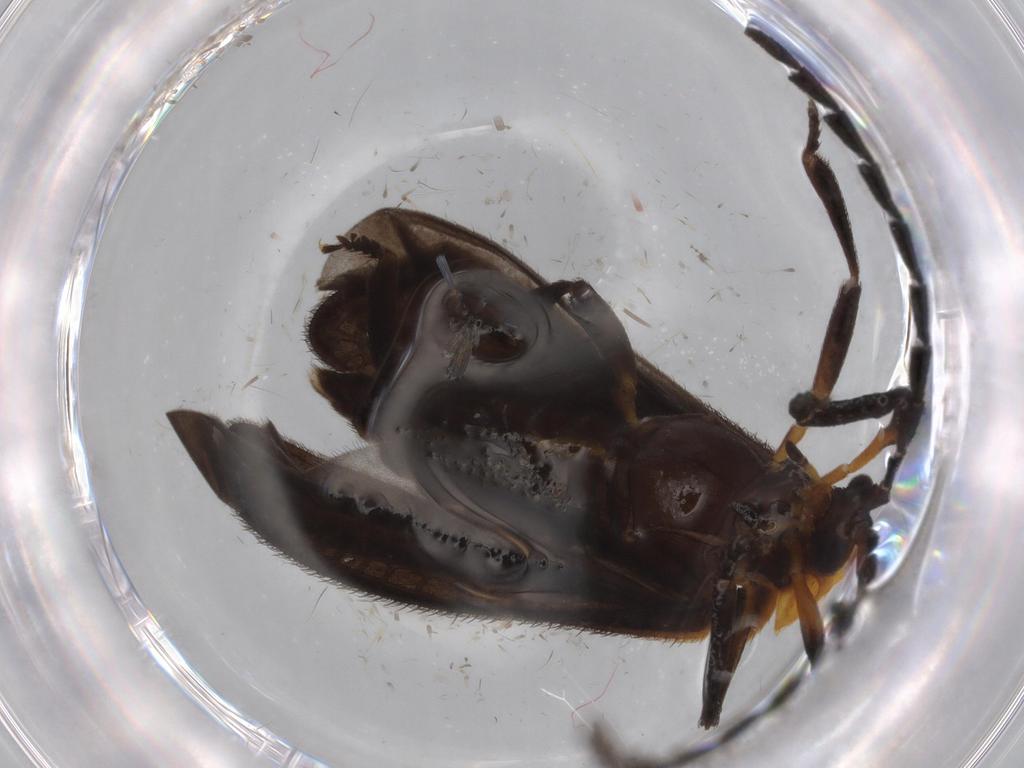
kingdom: Animalia
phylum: Arthropoda
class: Insecta
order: Coleoptera
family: Lycidae
